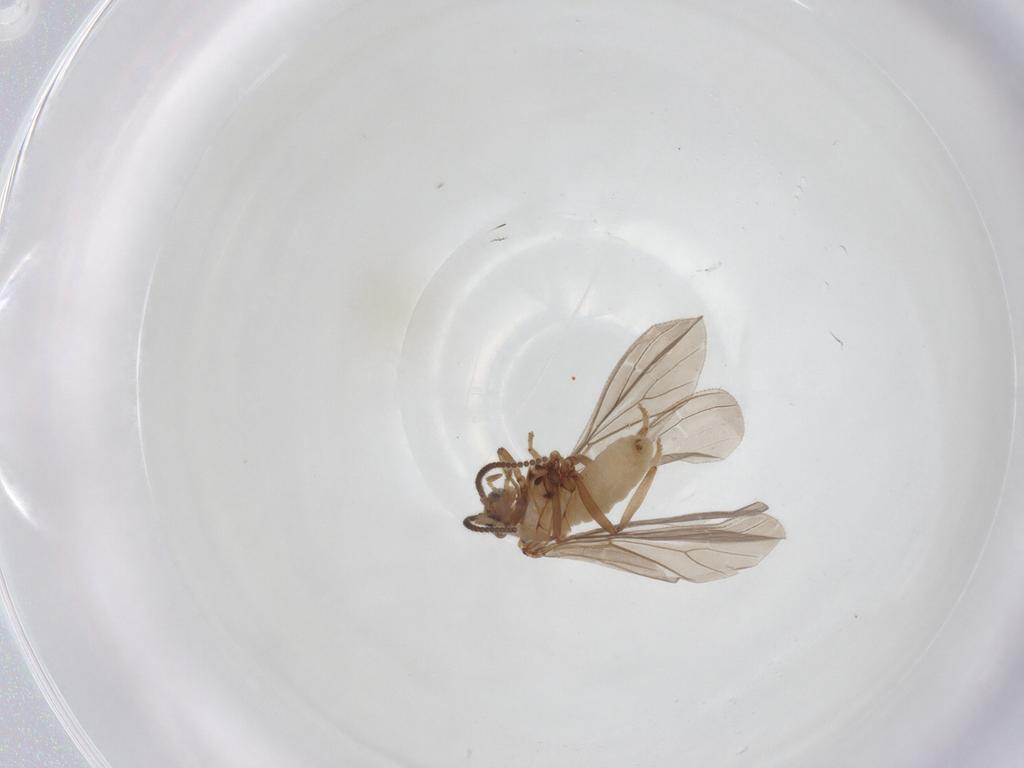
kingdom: Animalia
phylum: Arthropoda
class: Insecta
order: Neuroptera
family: Coniopterygidae
